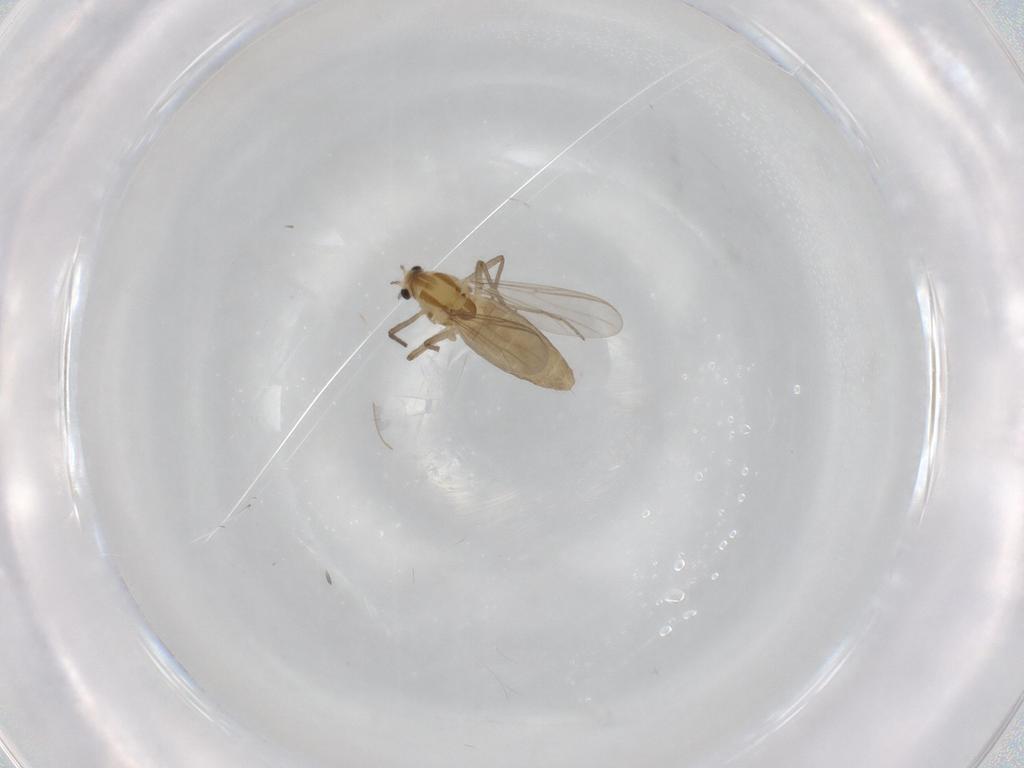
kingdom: Animalia
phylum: Arthropoda
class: Insecta
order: Diptera
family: Chironomidae
